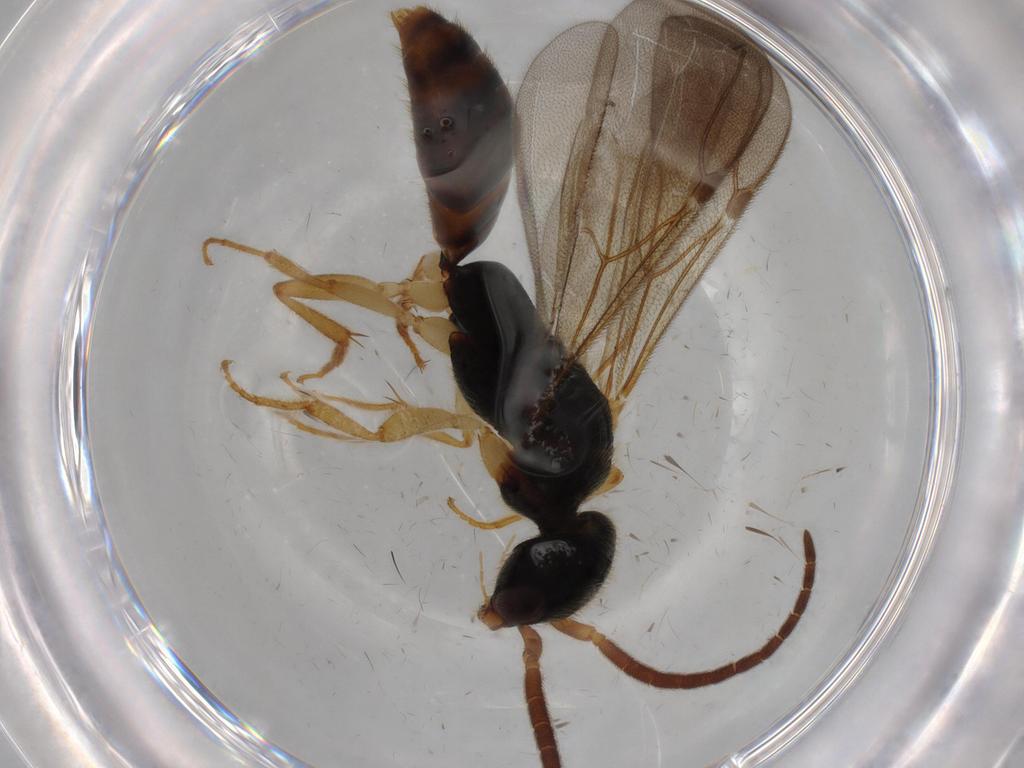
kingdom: Animalia
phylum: Arthropoda
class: Insecta
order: Hymenoptera
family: Bethylidae
